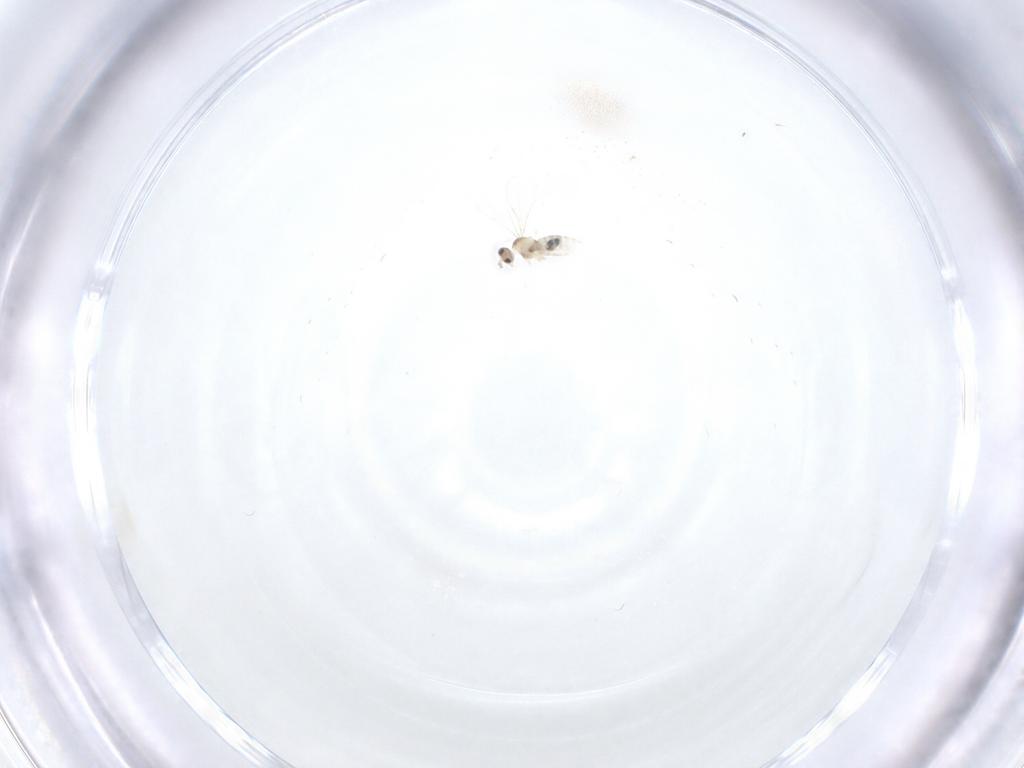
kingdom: Animalia
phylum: Arthropoda
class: Insecta
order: Diptera
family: Cecidomyiidae
